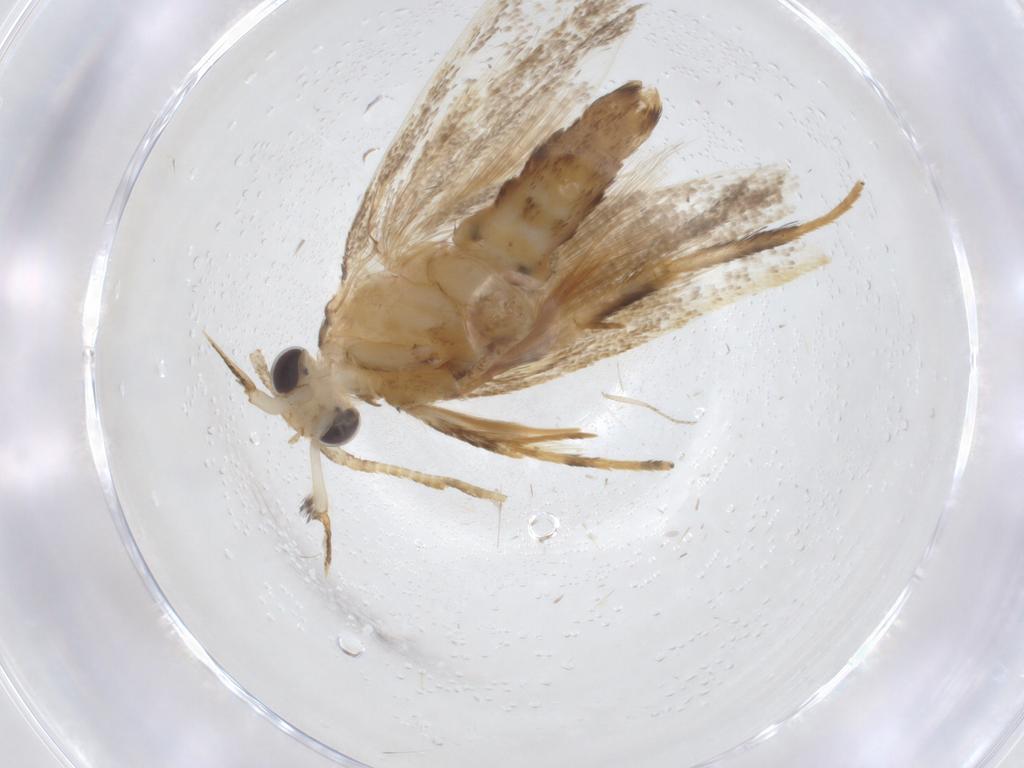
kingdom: Animalia
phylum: Arthropoda
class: Insecta
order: Lepidoptera
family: Lecithoceridae
